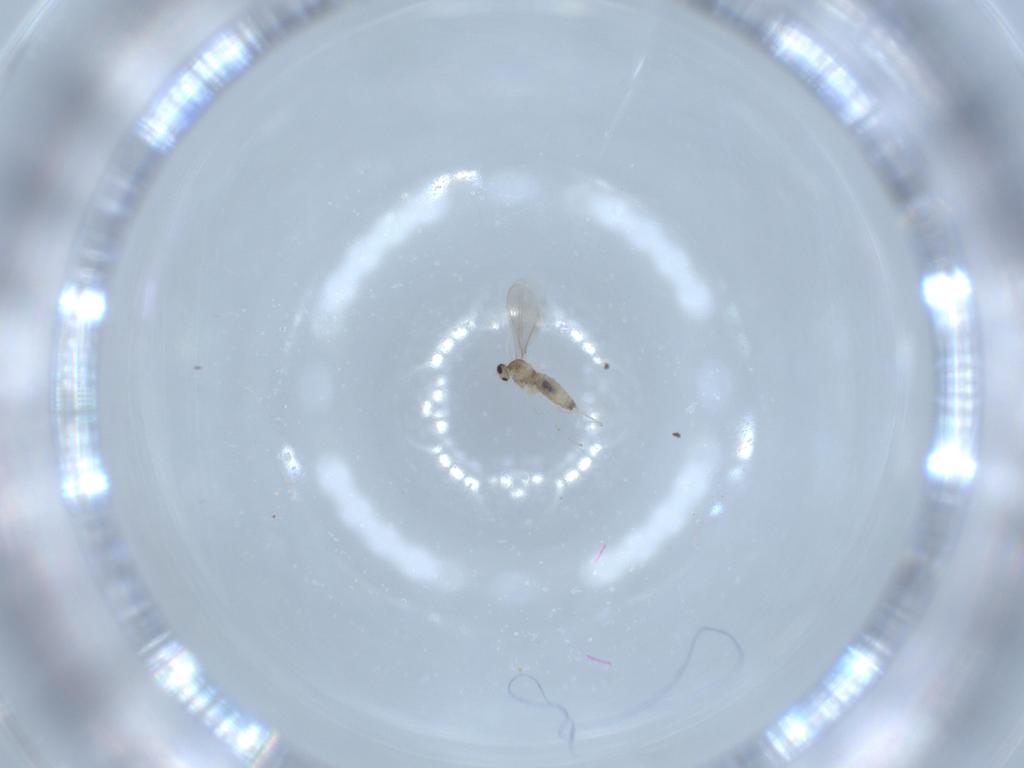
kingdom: Animalia
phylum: Arthropoda
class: Insecta
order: Diptera
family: Cecidomyiidae
